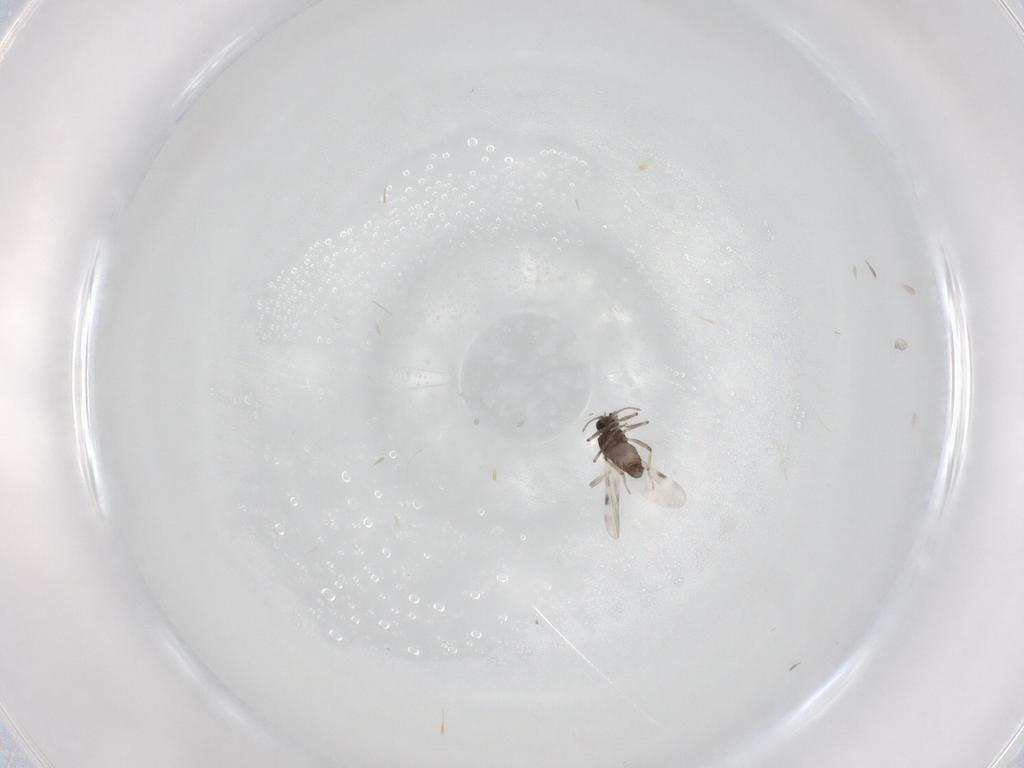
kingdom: Animalia
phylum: Arthropoda
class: Insecta
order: Diptera
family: Ceratopogonidae
